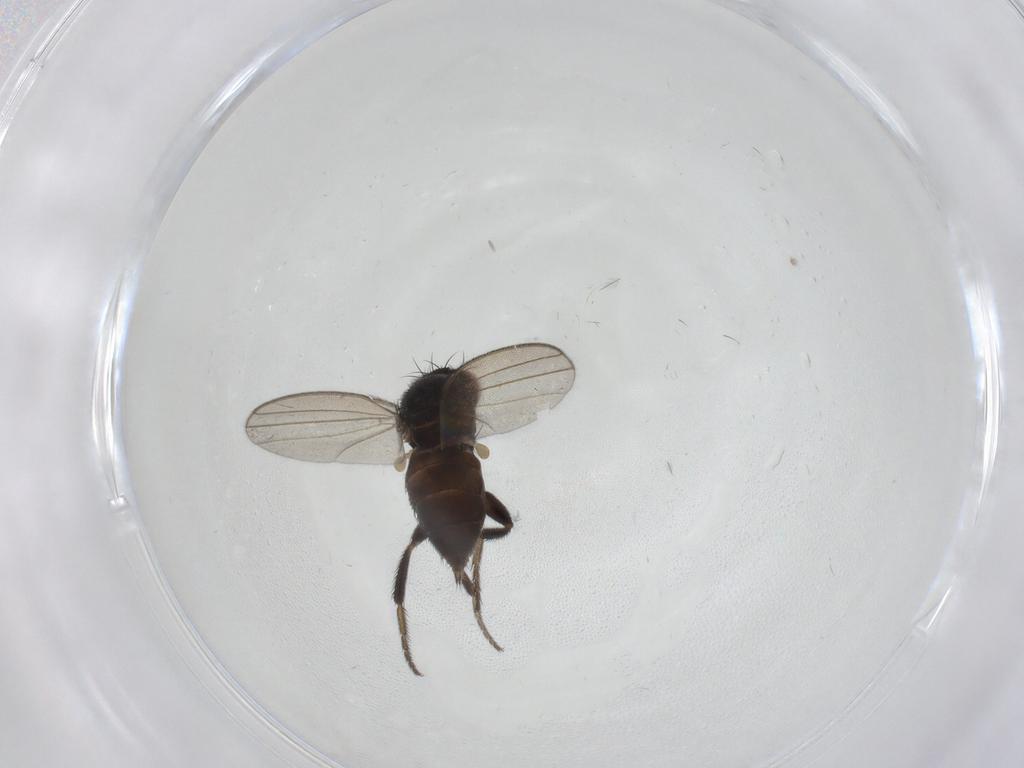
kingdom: Animalia
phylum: Arthropoda
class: Insecta
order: Diptera
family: Milichiidae
